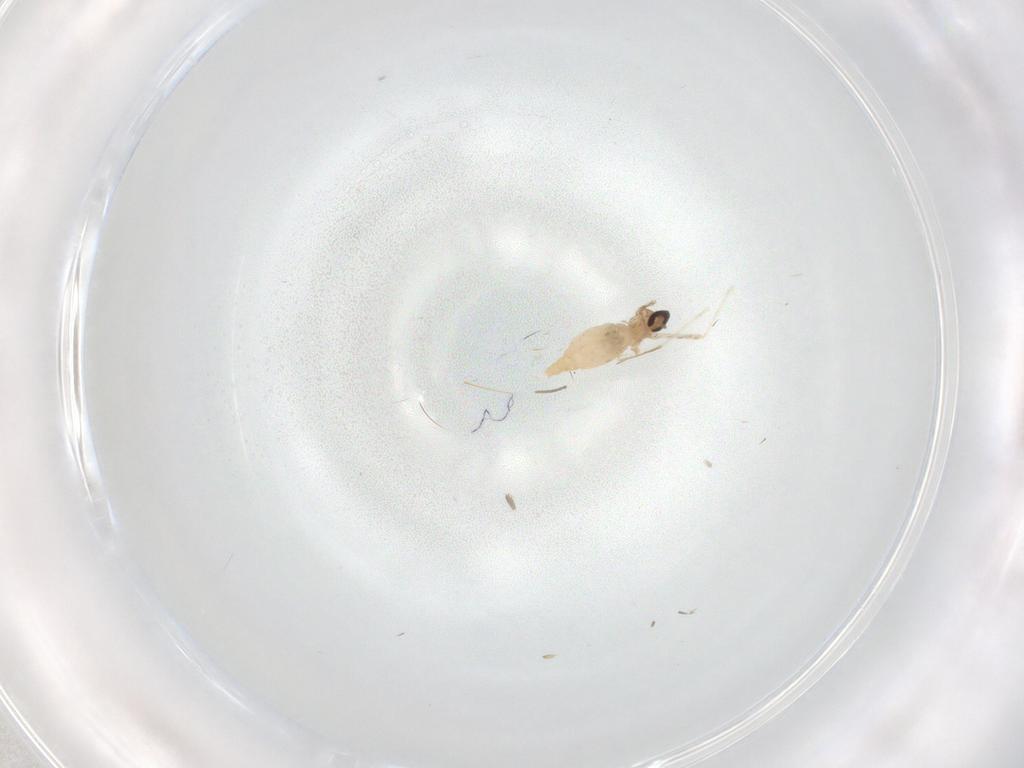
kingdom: Animalia
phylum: Arthropoda
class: Insecta
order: Diptera
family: Cecidomyiidae
